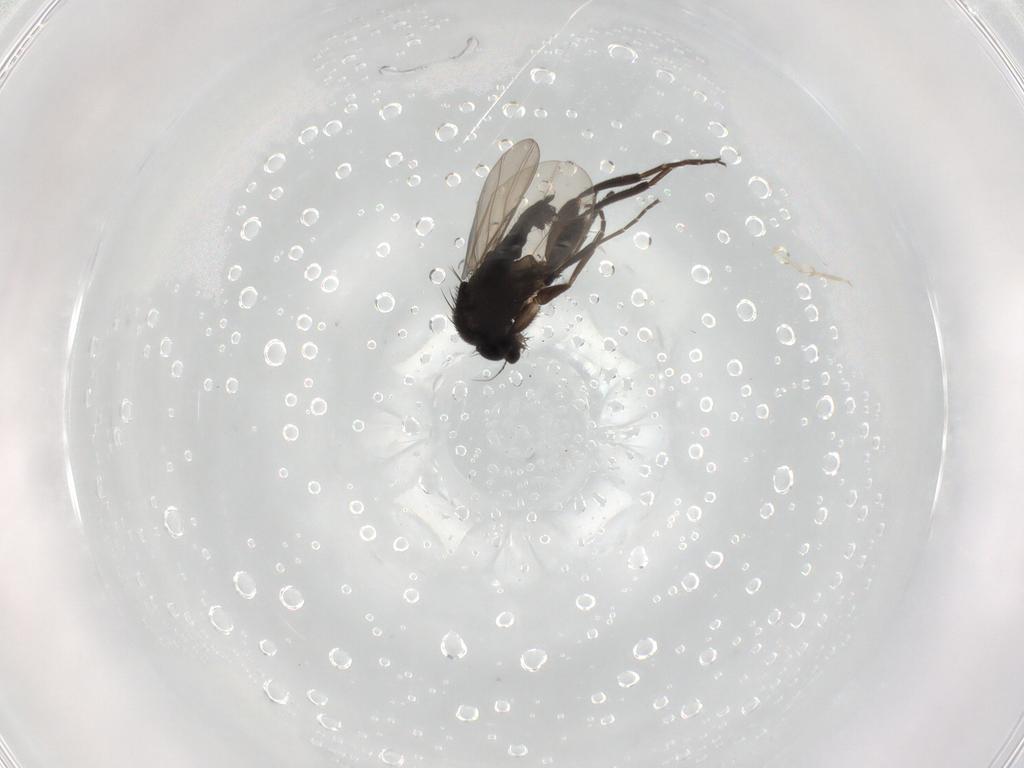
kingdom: Animalia
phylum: Arthropoda
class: Insecta
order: Diptera
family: Phoridae
